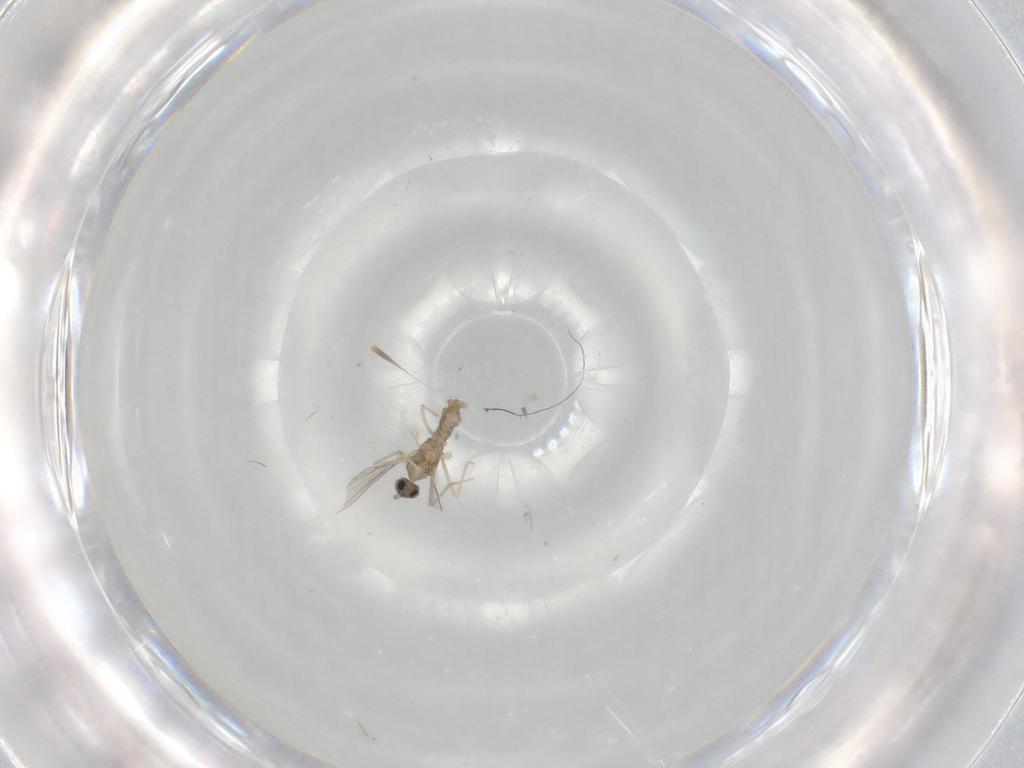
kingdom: Animalia
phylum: Arthropoda
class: Insecta
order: Diptera
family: Cecidomyiidae
